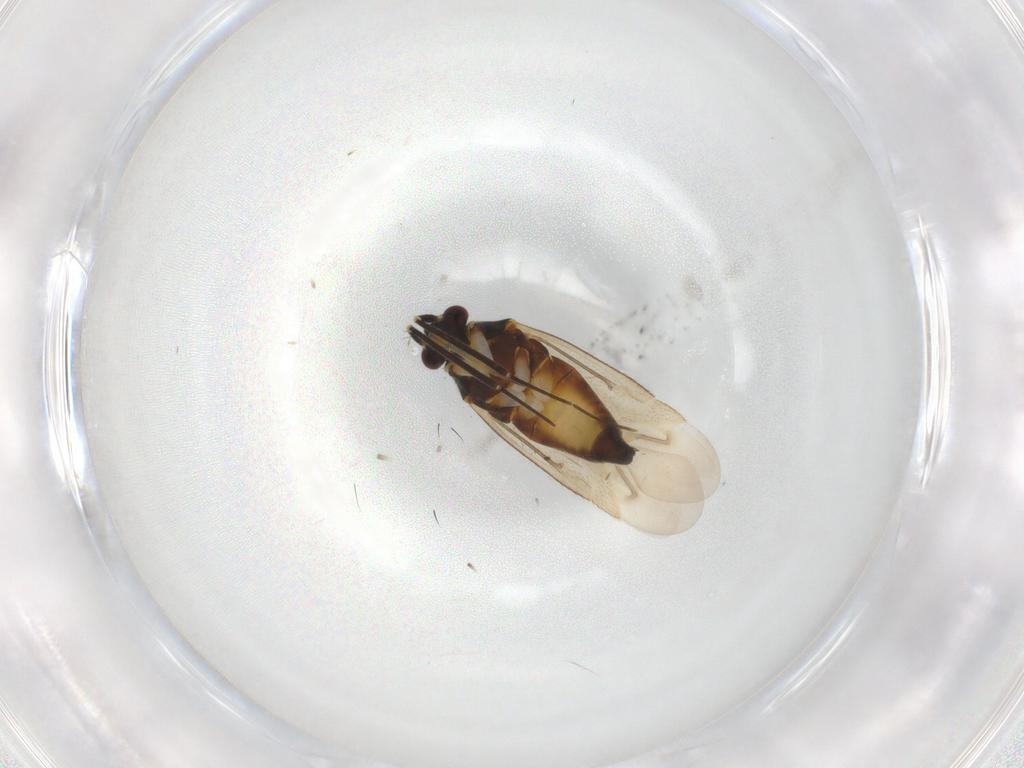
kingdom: Animalia
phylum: Arthropoda
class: Insecta
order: Hemiptera
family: Miridae
